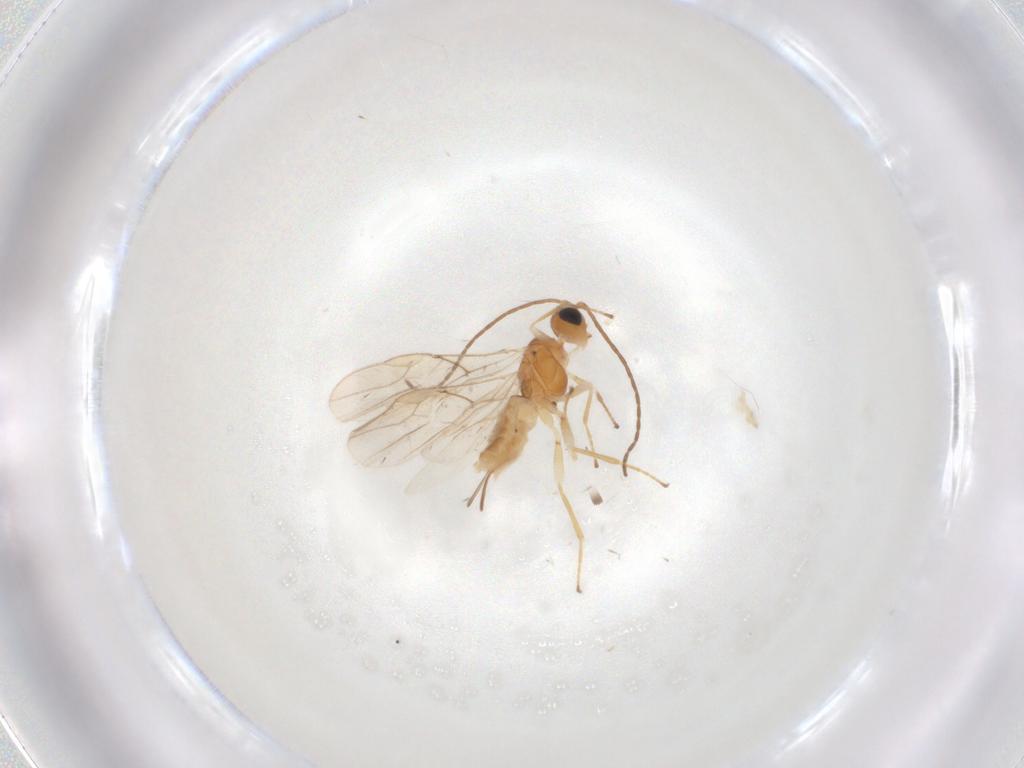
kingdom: Animalia
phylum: Arthropoda
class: Insecta
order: Hymenoptera
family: Braconidae
